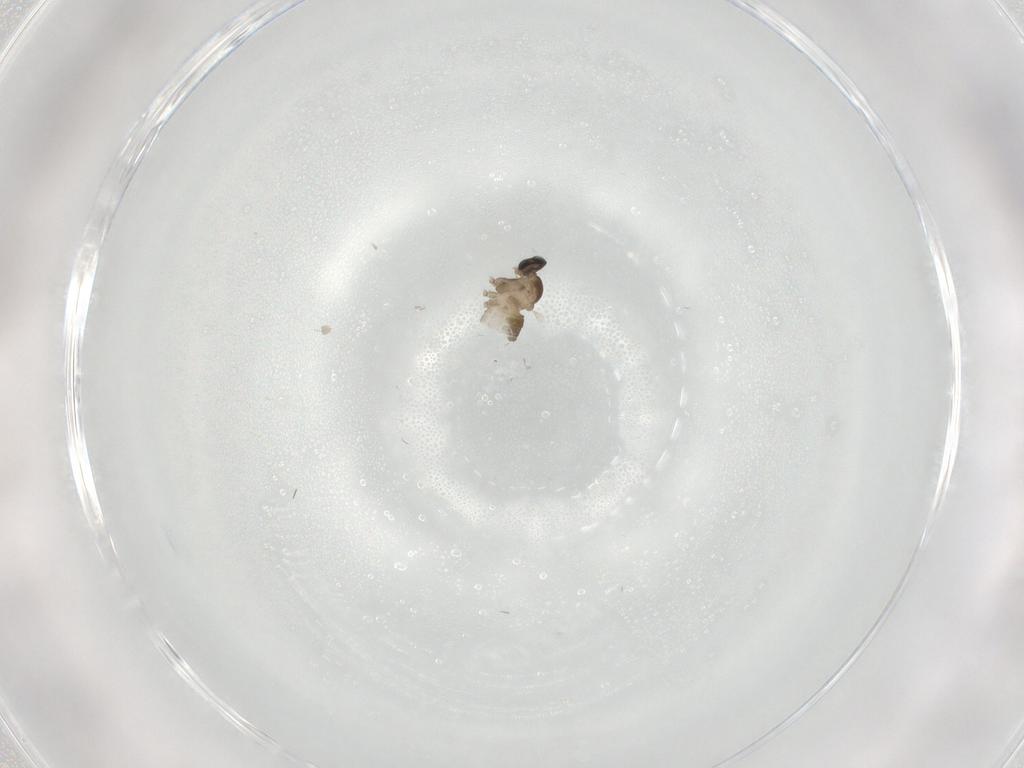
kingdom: Animalia
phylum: Arthropoda
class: Insecta
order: Diptera
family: Cecidomyiidae
